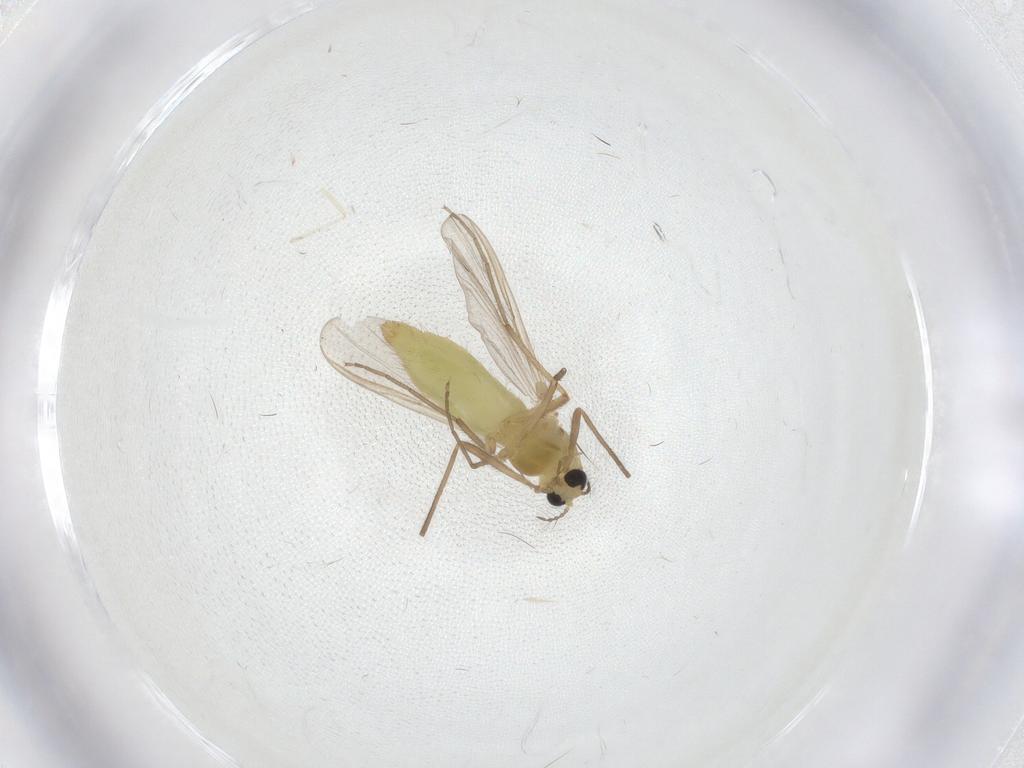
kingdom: Animalia
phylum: Arthropoda
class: Insecta
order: Diptera
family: Chironomidae
